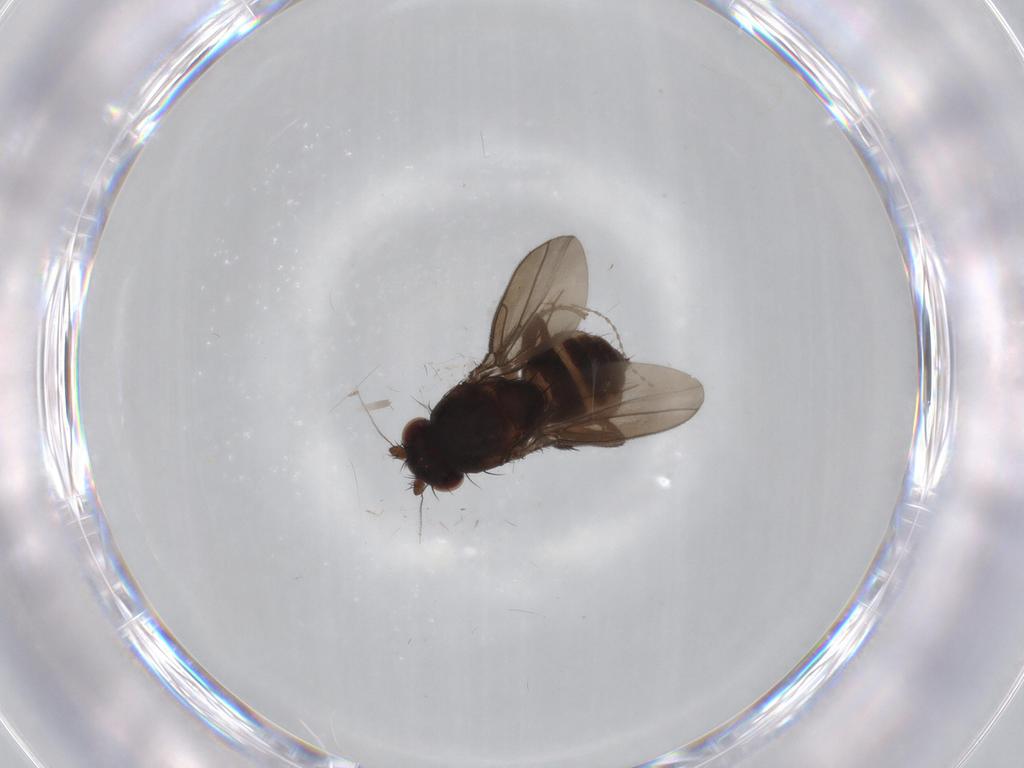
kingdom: Animalia
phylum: Arthropoda
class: Insecta
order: Diptera
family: Cecidomyiidae
